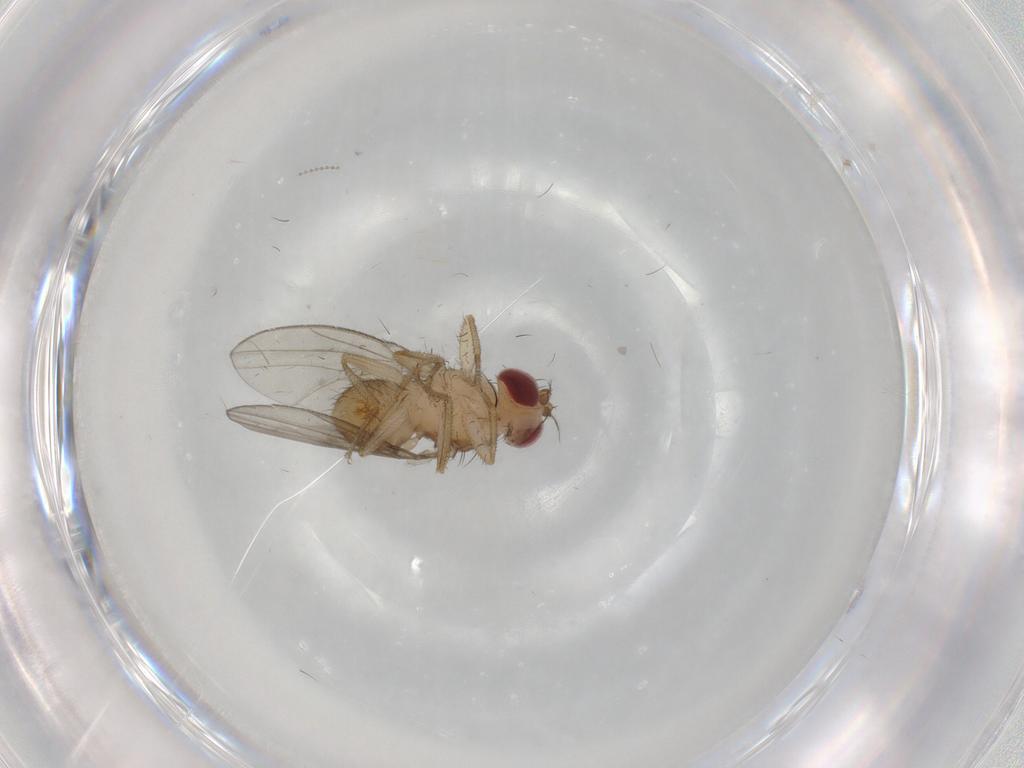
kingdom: Animalia
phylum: Arthropoda
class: Insecta
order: Diptera
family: Drosophilidae
